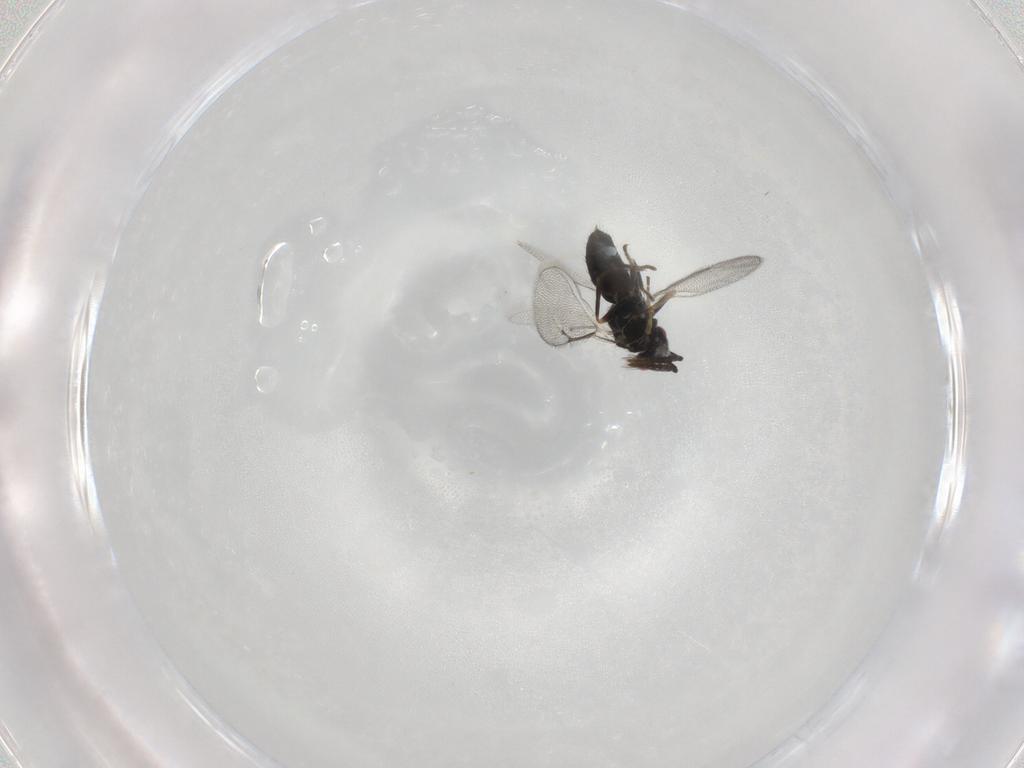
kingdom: Animalia
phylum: Arthropoda
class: Insecta
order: Hymenoptera
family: Eulophidae
